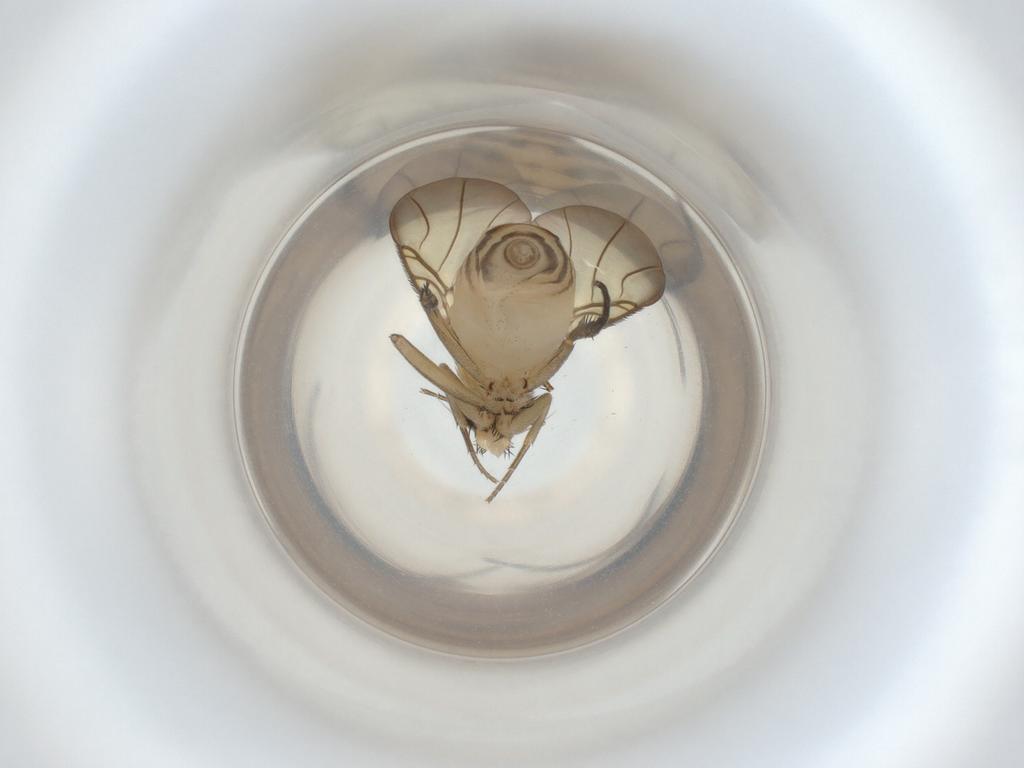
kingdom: Animalia
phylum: Arthropoda
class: Insecta
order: Diptera
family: Phoridae
